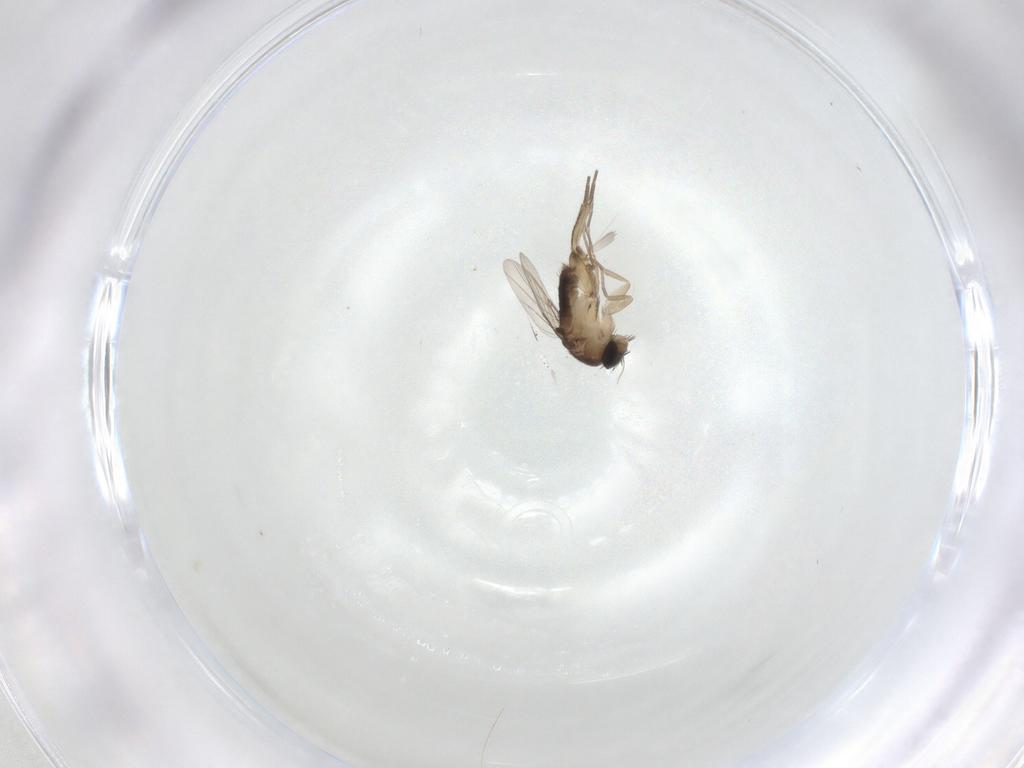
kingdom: Animalia
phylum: Arthropoda
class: Insecta
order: Diptera
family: Phoridae
